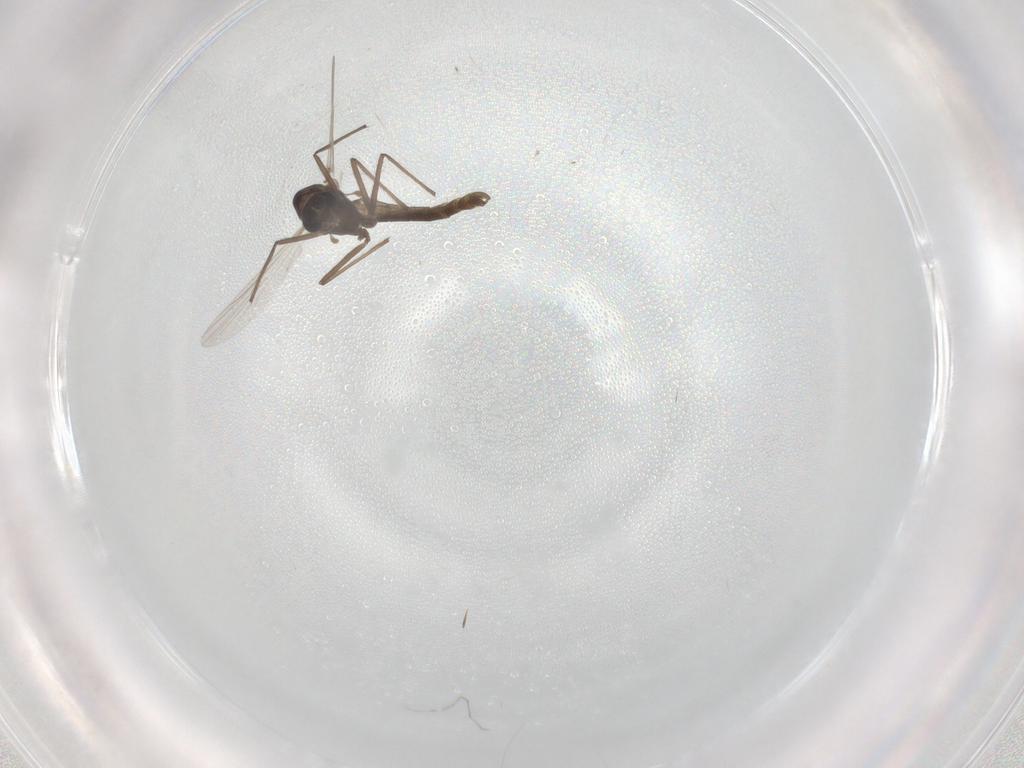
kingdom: Animalia
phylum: Arthropoda
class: Insecta
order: Diptera
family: Chironomidae
